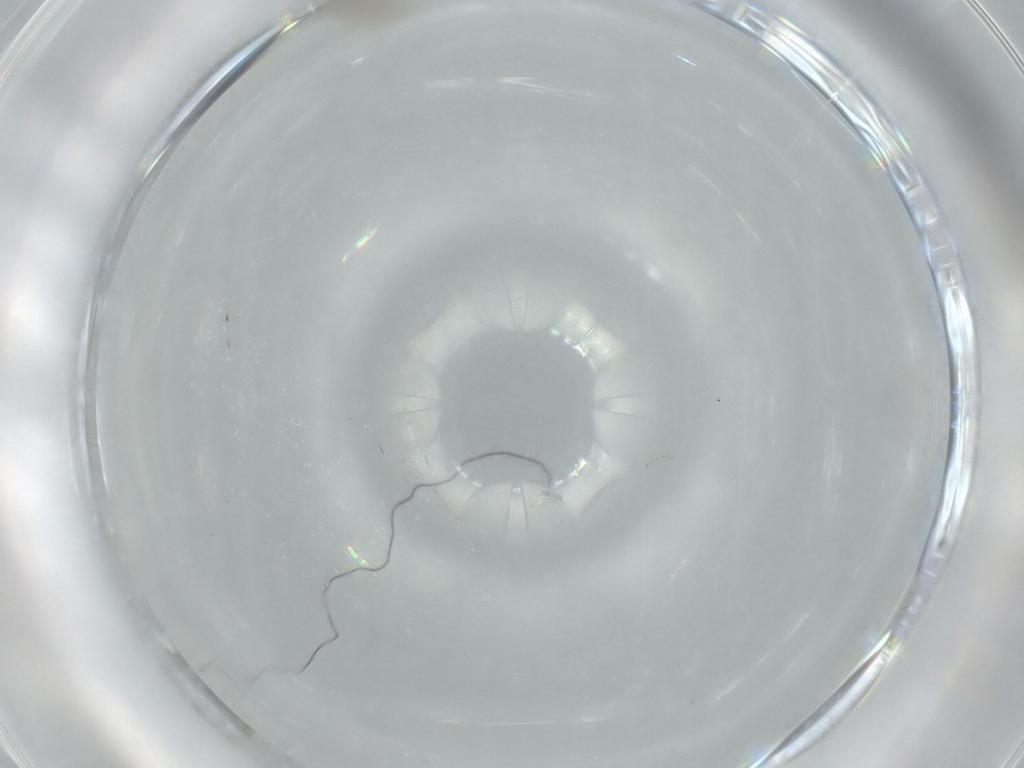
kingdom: Animalia
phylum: Arthropoda
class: Insecta
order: Diptera
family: Cecidomyiidae
